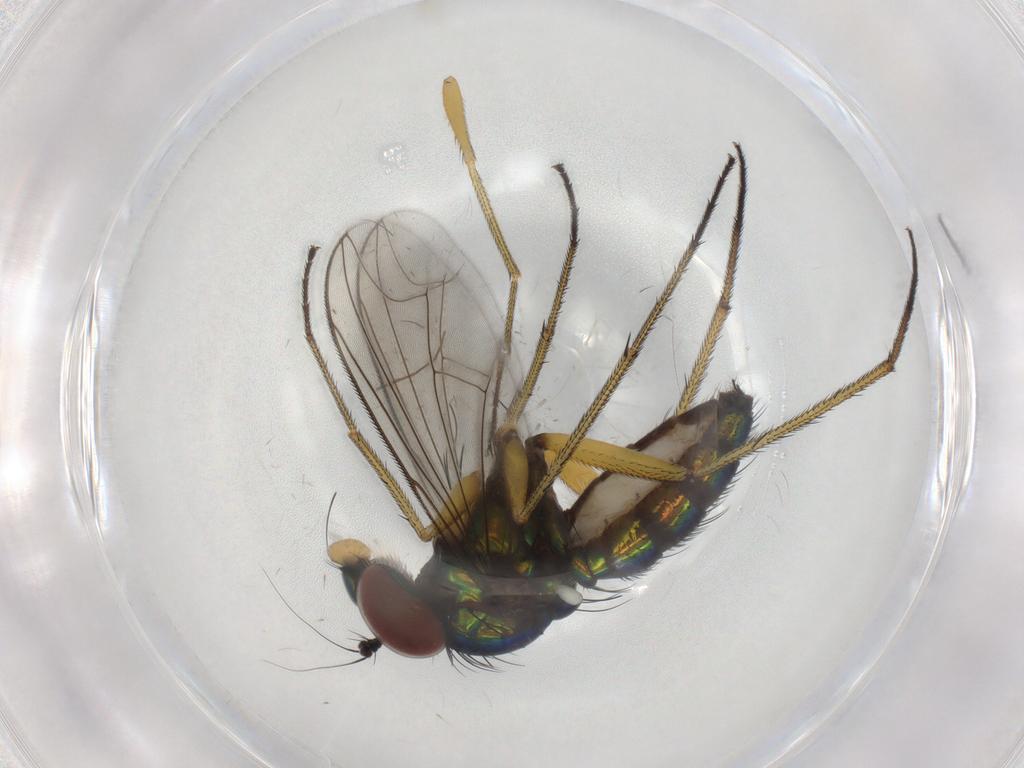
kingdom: Animalia
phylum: Arthropoda
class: Insecta
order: Diptera
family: Dolichopodidae
